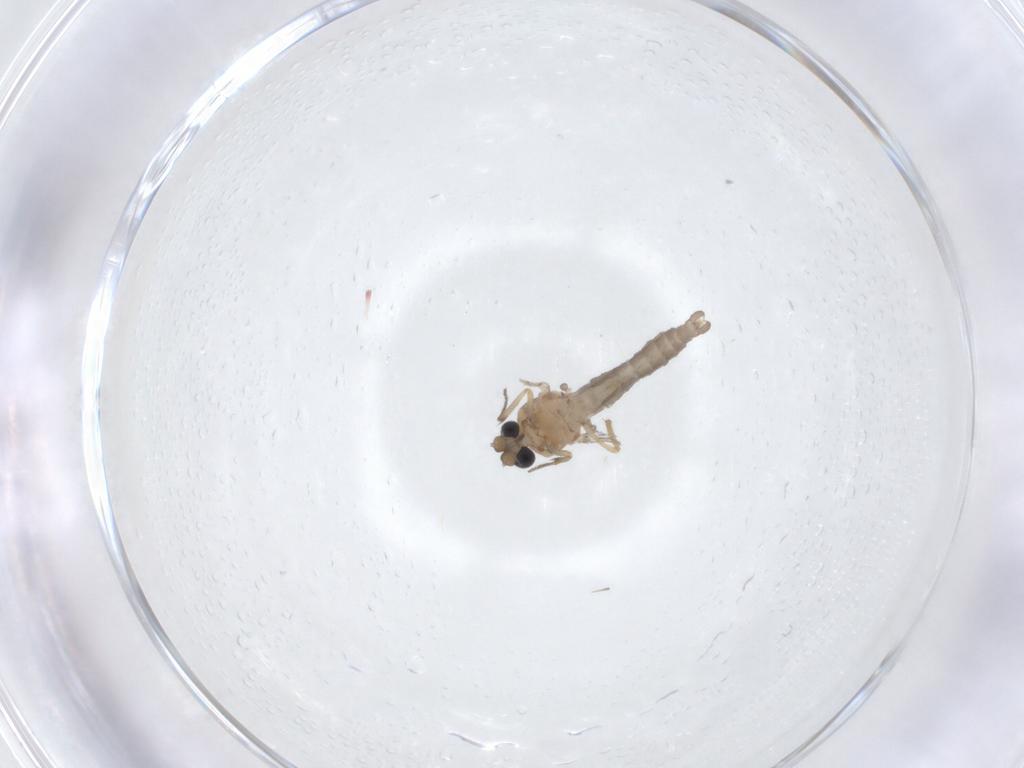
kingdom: Animalia
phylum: Arthropoda
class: Insecta
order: Diptera
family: Ceratopogonidae
